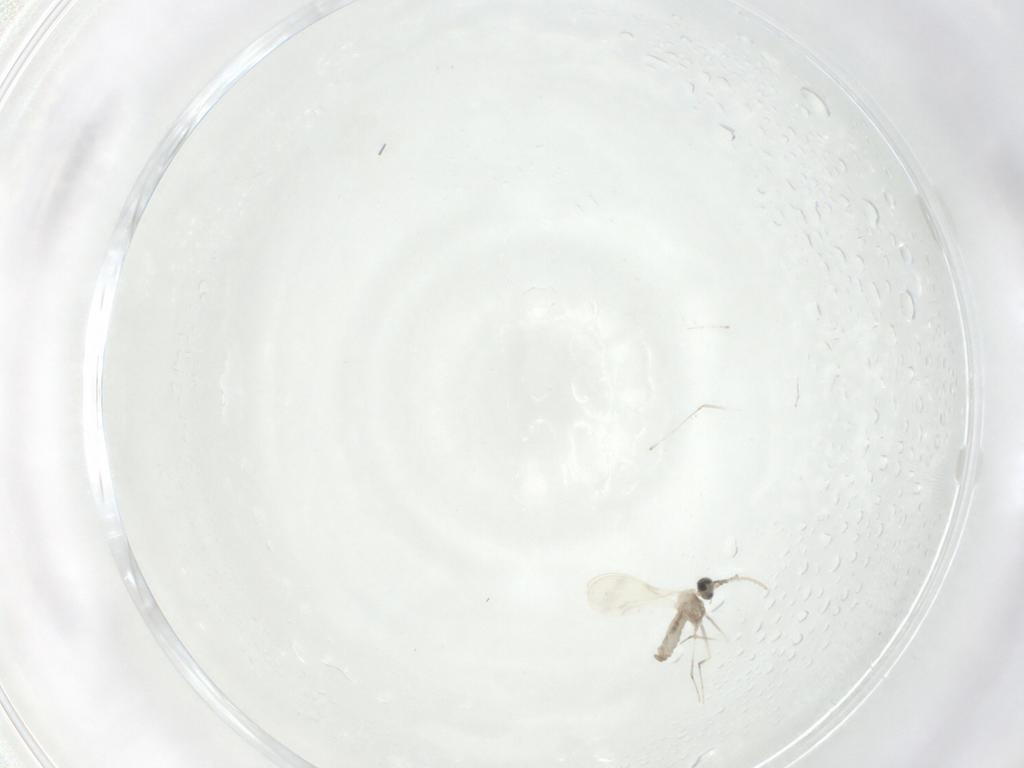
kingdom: Animalia
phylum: Arthropoda
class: Insecta
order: Diptera
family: Cecidomyiidae
